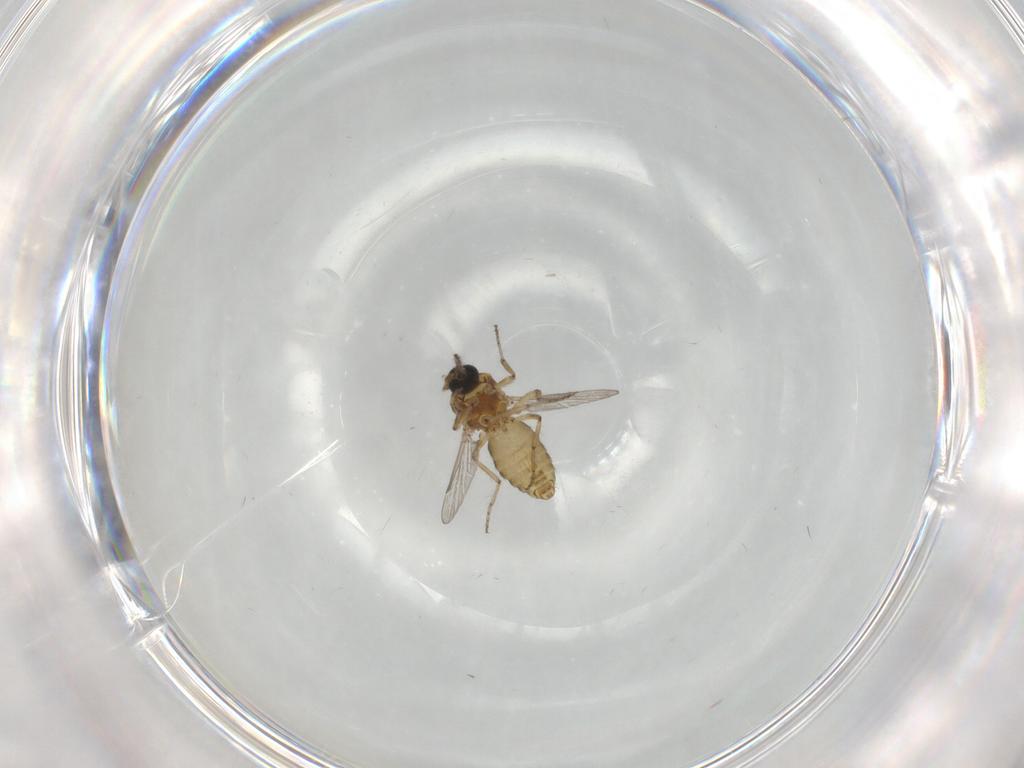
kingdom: Animalia
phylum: Arthropoda
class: Insecta
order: Diptera
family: Ceratopogonidae
